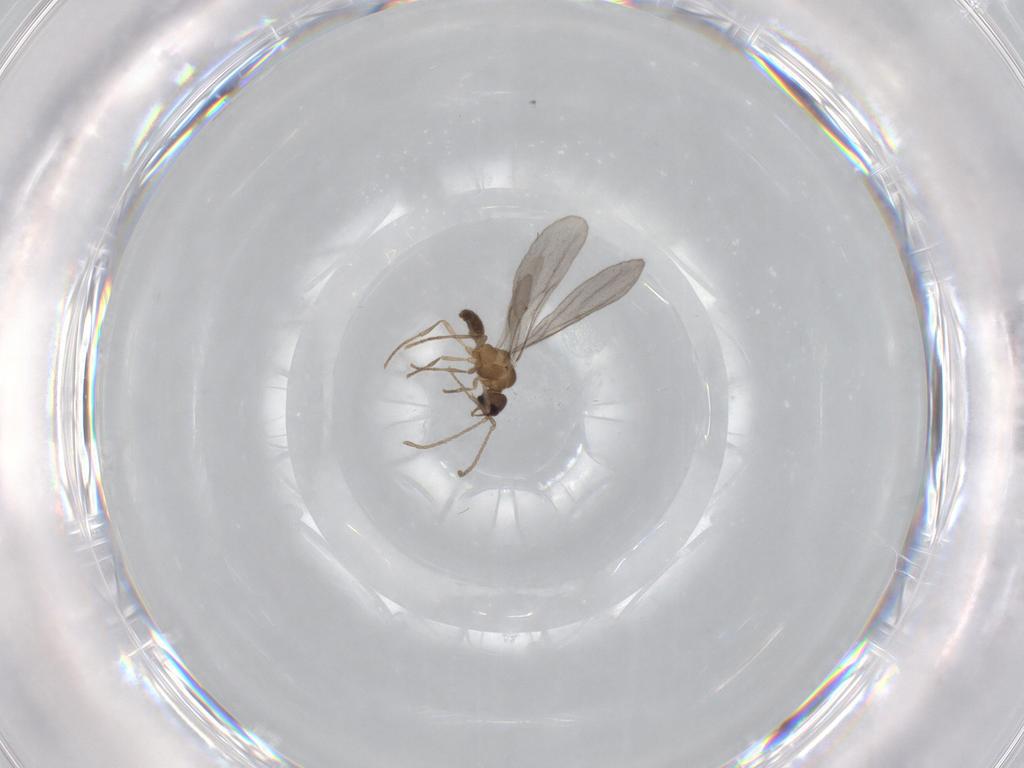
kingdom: Animalia
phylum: Arthropoda
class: Insecta
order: Hymenoptera
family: Formicidae
